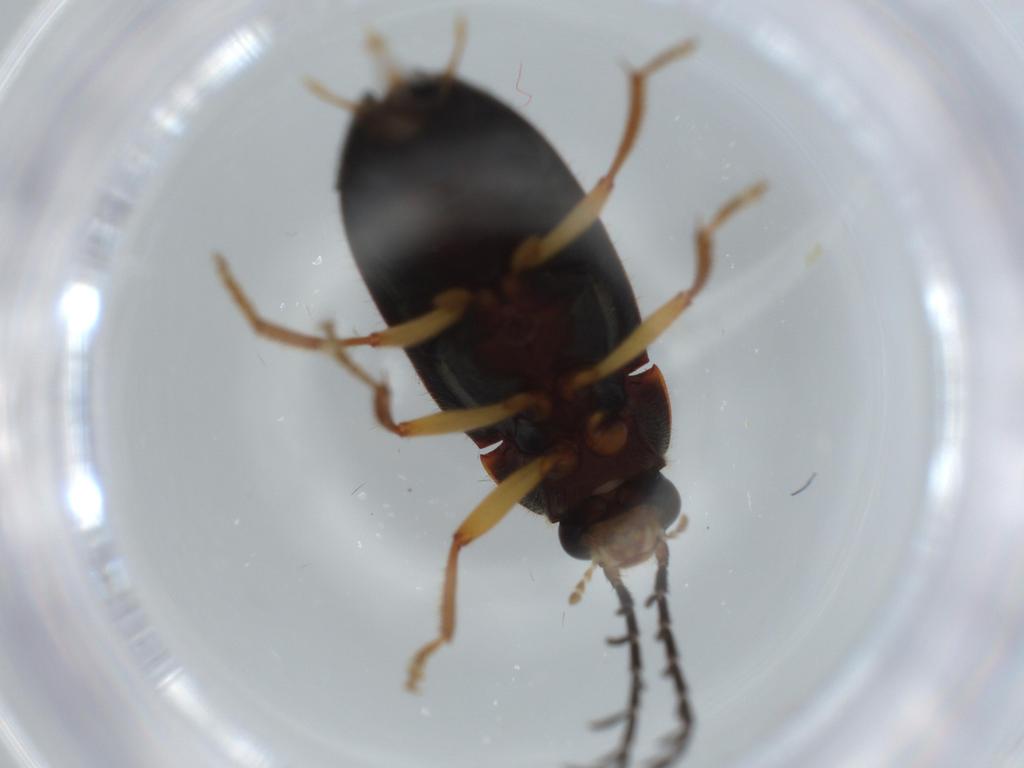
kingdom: Animalia
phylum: Arthropoda
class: Insecta
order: Coleoptera
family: Ptilodactylidae
